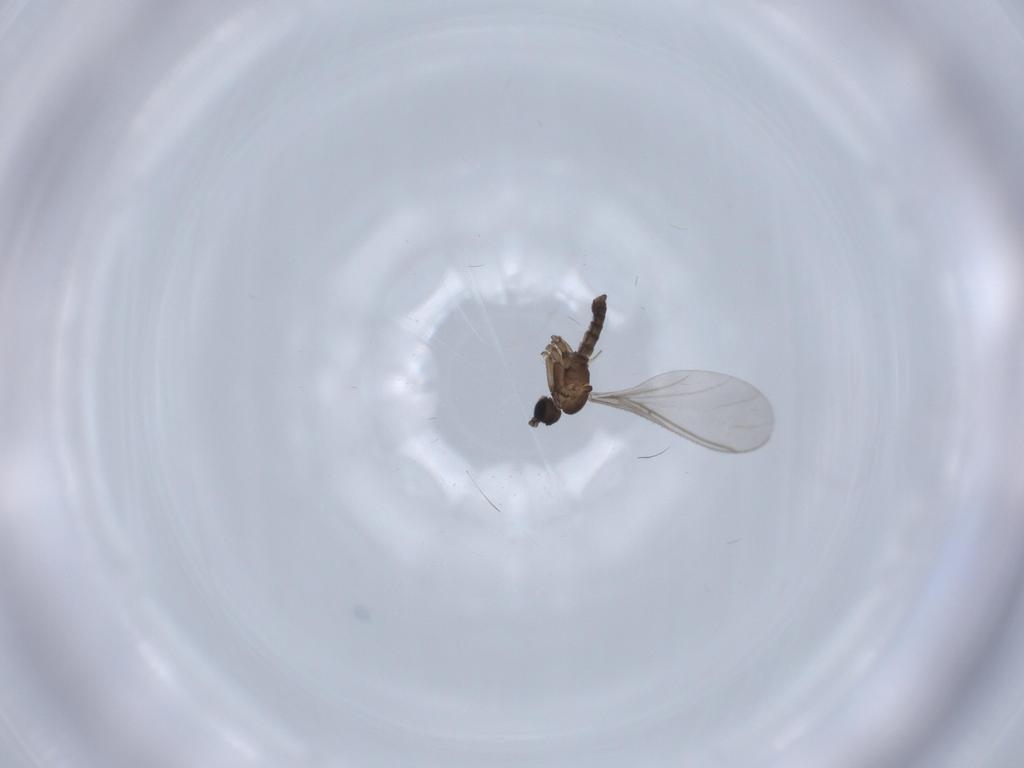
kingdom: Animalia
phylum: Arthropoda
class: Insecta
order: Diptera
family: Sciaridae
